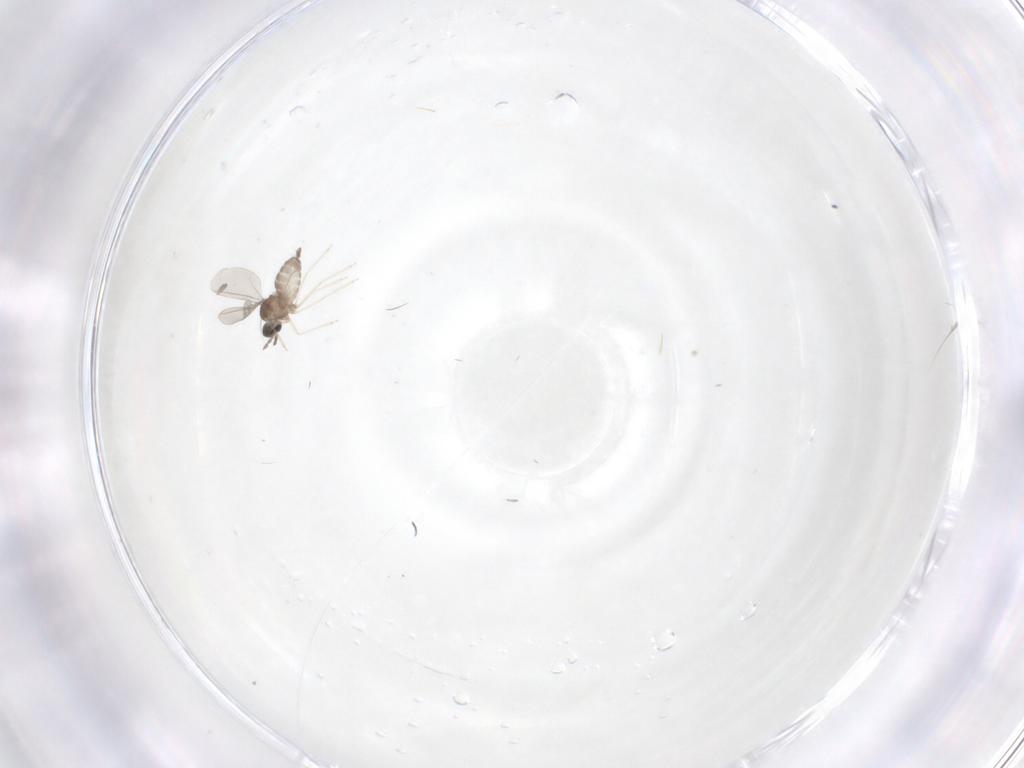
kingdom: Animalia
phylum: Arthropoda
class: Insecta
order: Diptera
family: Cecidomyiidae
